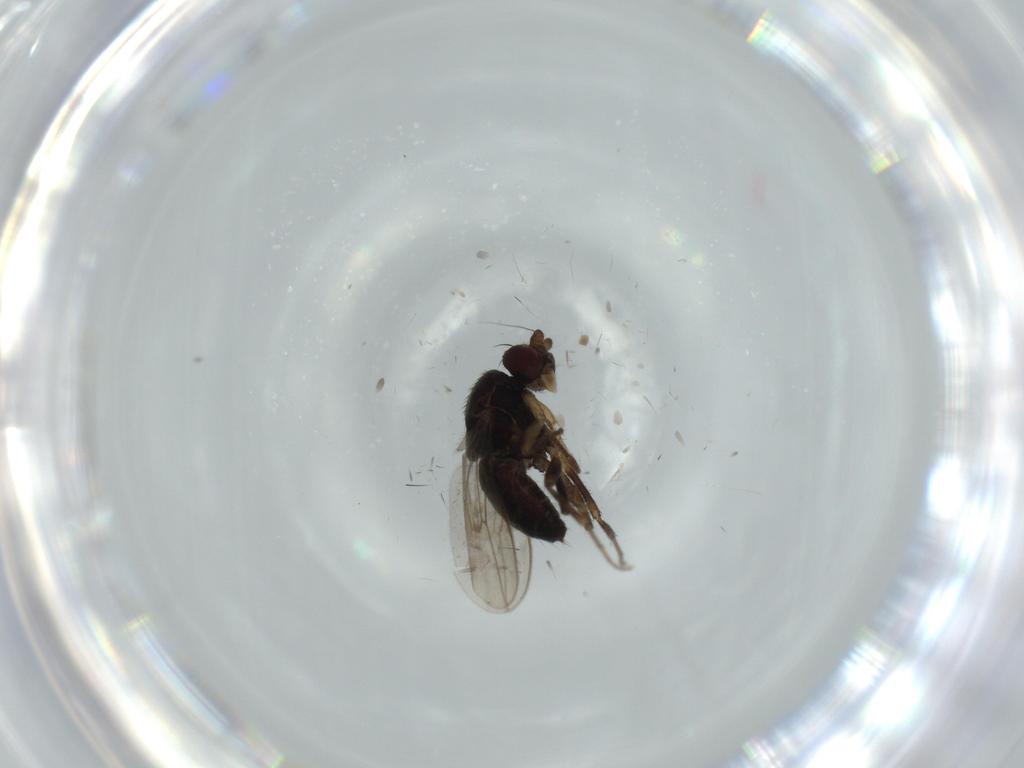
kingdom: Animalia
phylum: Arthropoda
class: Insecta
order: Diptera
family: Sphaeroceridae
